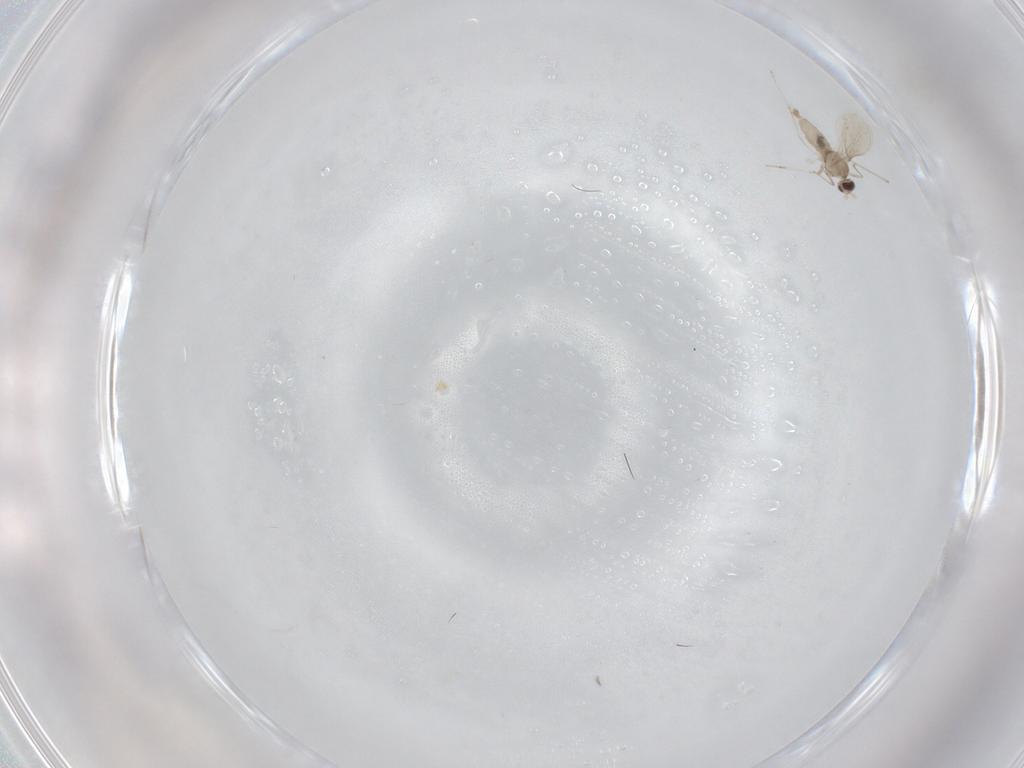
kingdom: Animalia
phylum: Arthropoda
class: Insecta
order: Diptera
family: Cecidomyiidae
